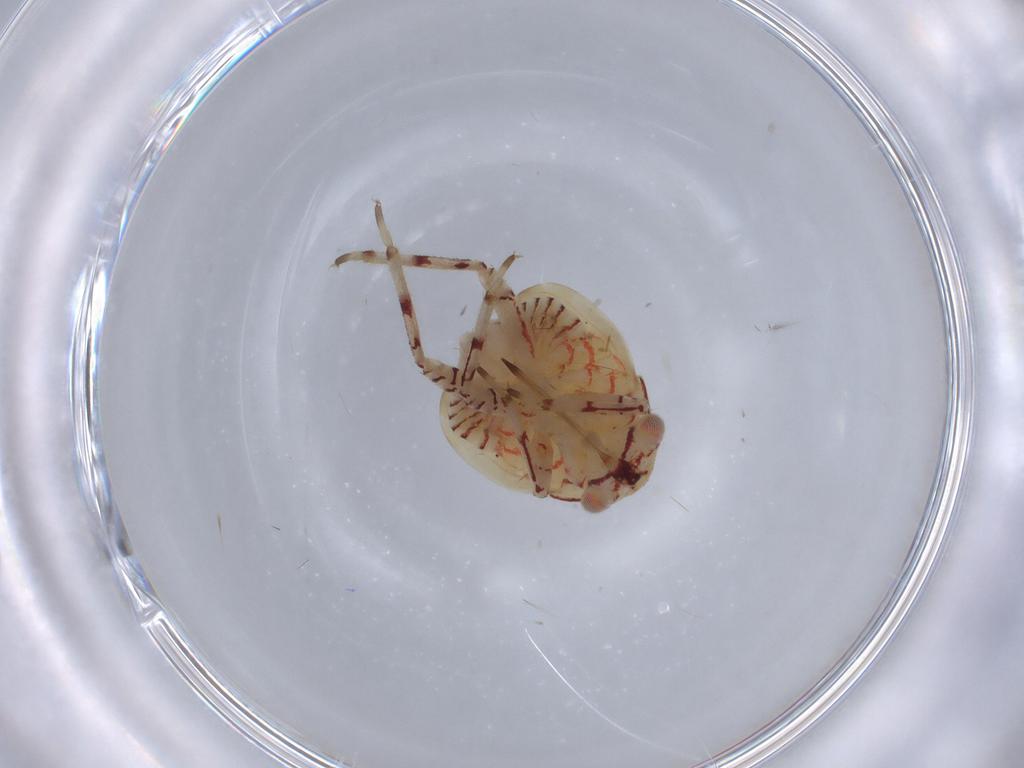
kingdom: Animalia
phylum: Arthropoda
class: Insecta
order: Hemiptera
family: Miridae
